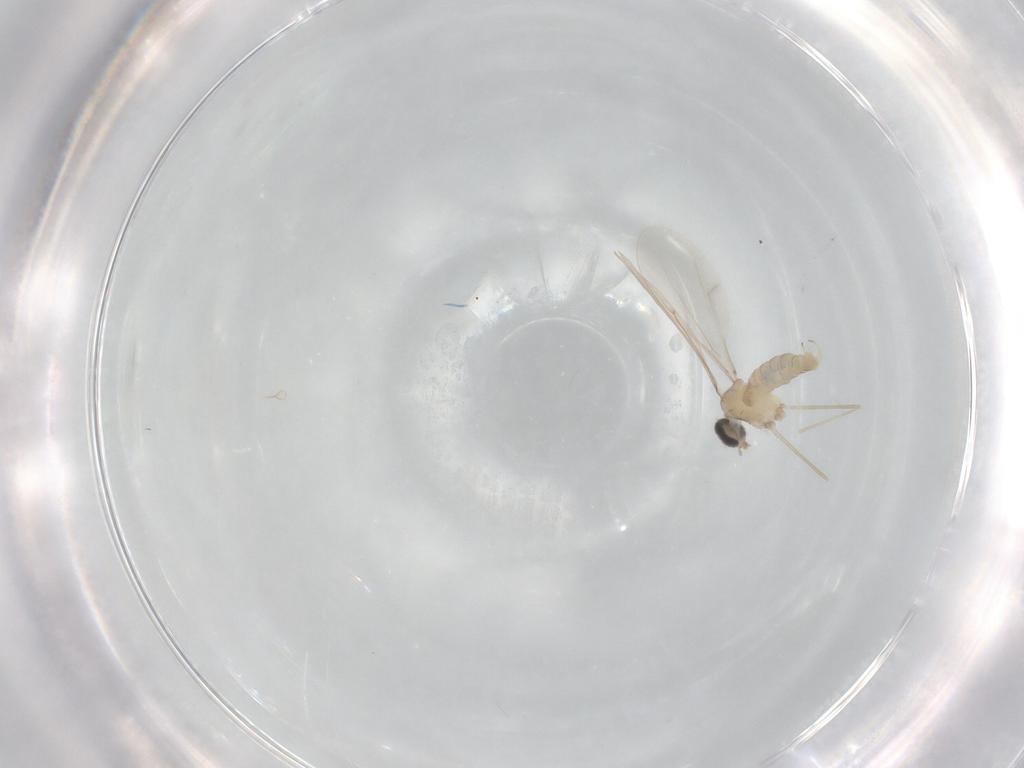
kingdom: Animalia
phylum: Arthropoda
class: Insecta
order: Diptera
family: Cecidomyiidae
